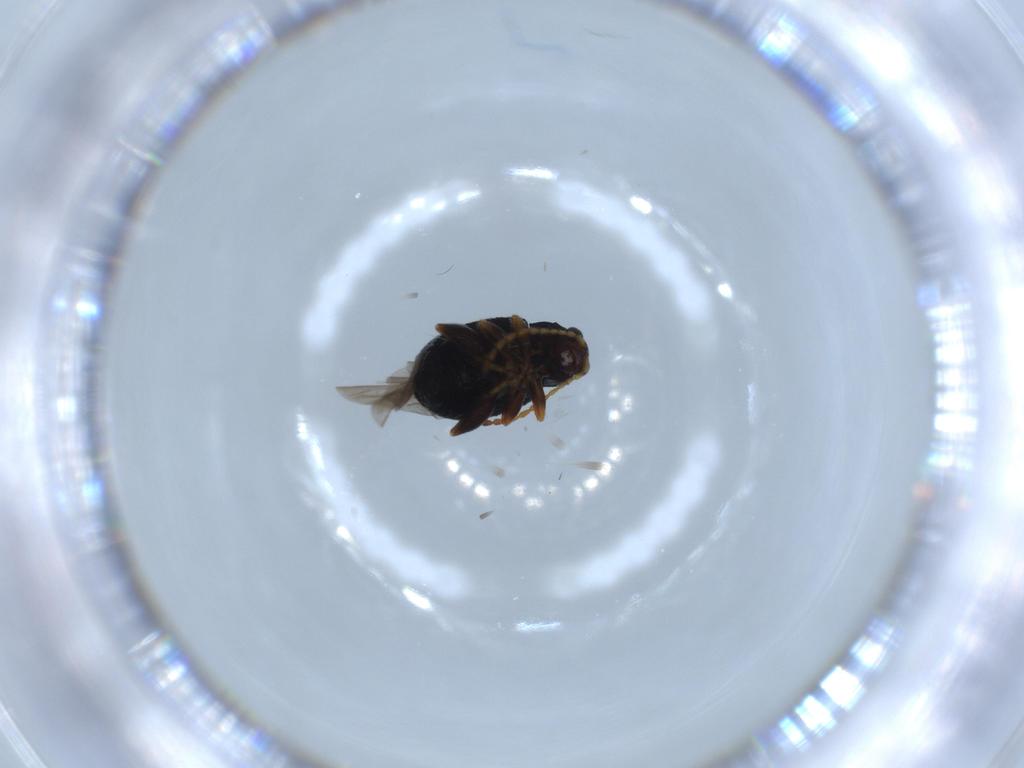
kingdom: Animalia
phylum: Arthropoda
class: Insecta
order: Coleoptera
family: Chrysomelidae
